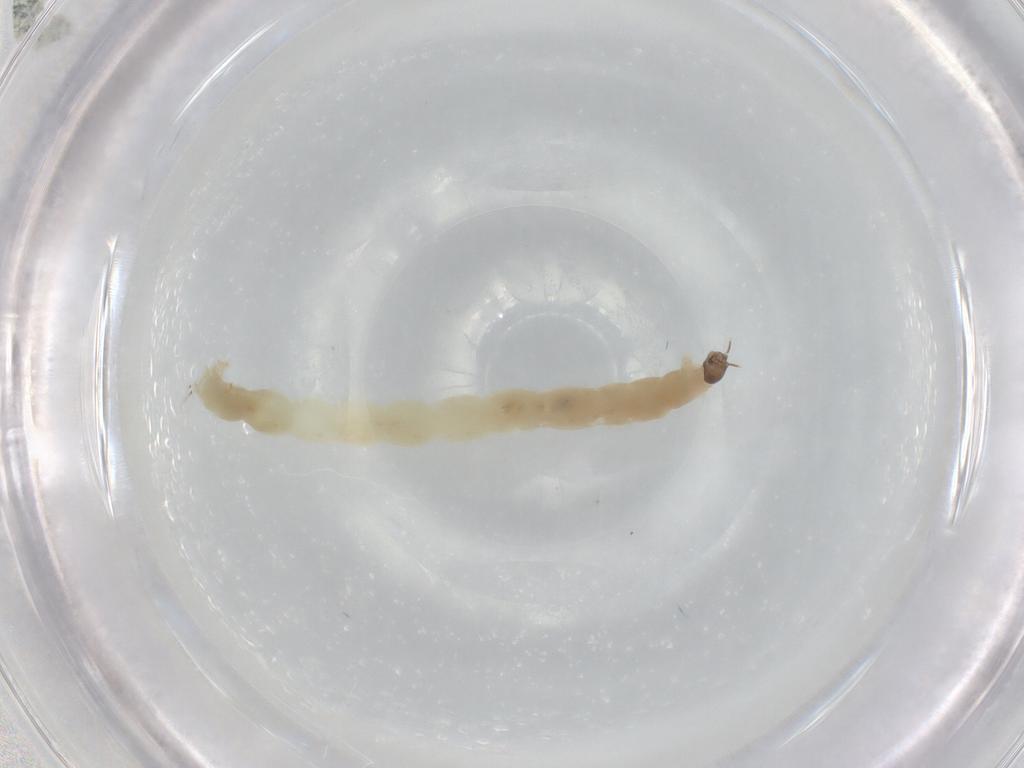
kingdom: Animalia
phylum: Arthropoda
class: Insecta
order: Diptera
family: Chironomidae
